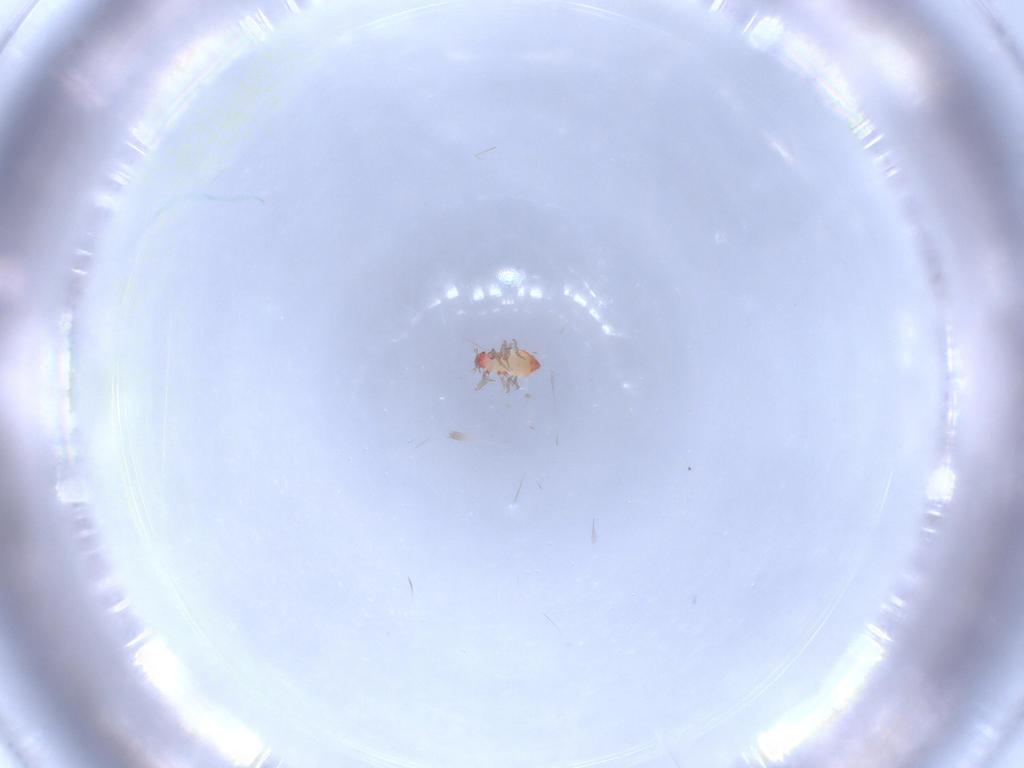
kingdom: Animalia
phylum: Arthropoda
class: Insecta
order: Hemiptera
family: Schizopteridae
